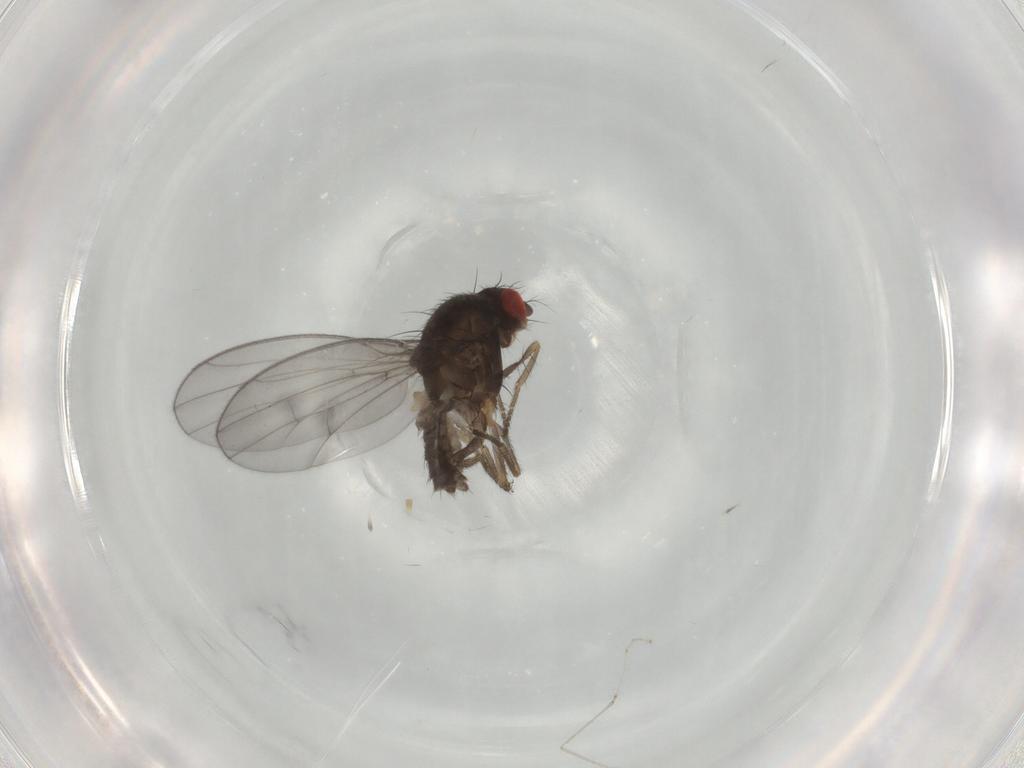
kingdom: Animalia
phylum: Arthropoda
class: Insecta
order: Diptera
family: Drosophilidae
